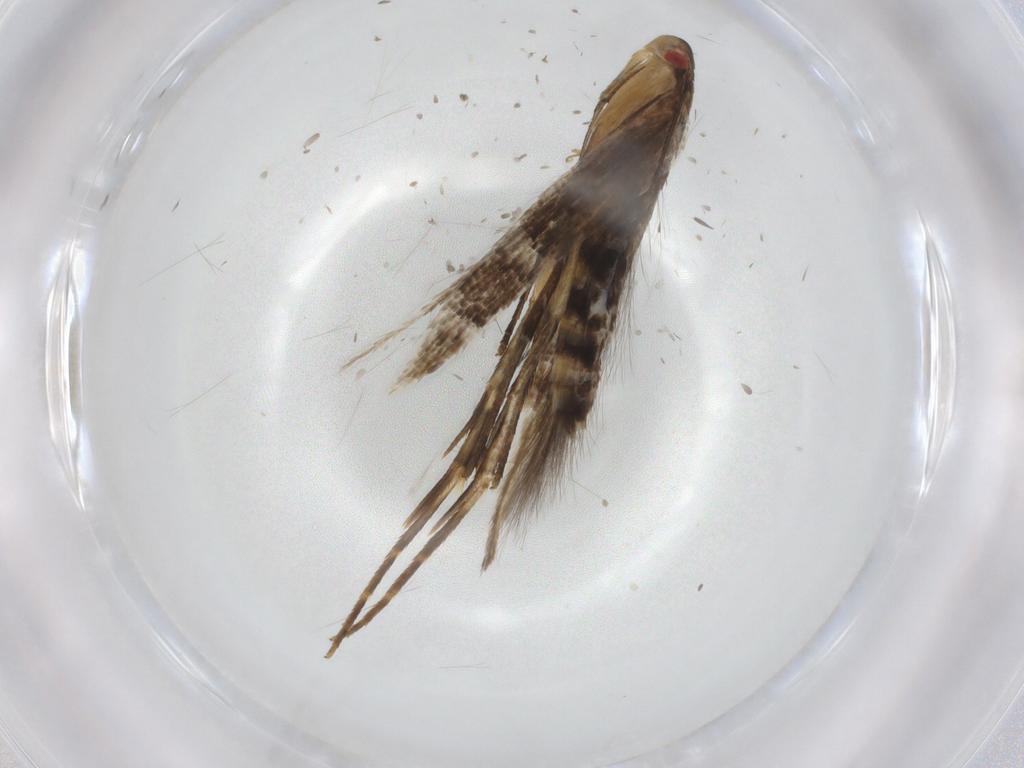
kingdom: Animalia
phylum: Arthropoda
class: Insecta
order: Lepidoptera
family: Cosmopterigidae
